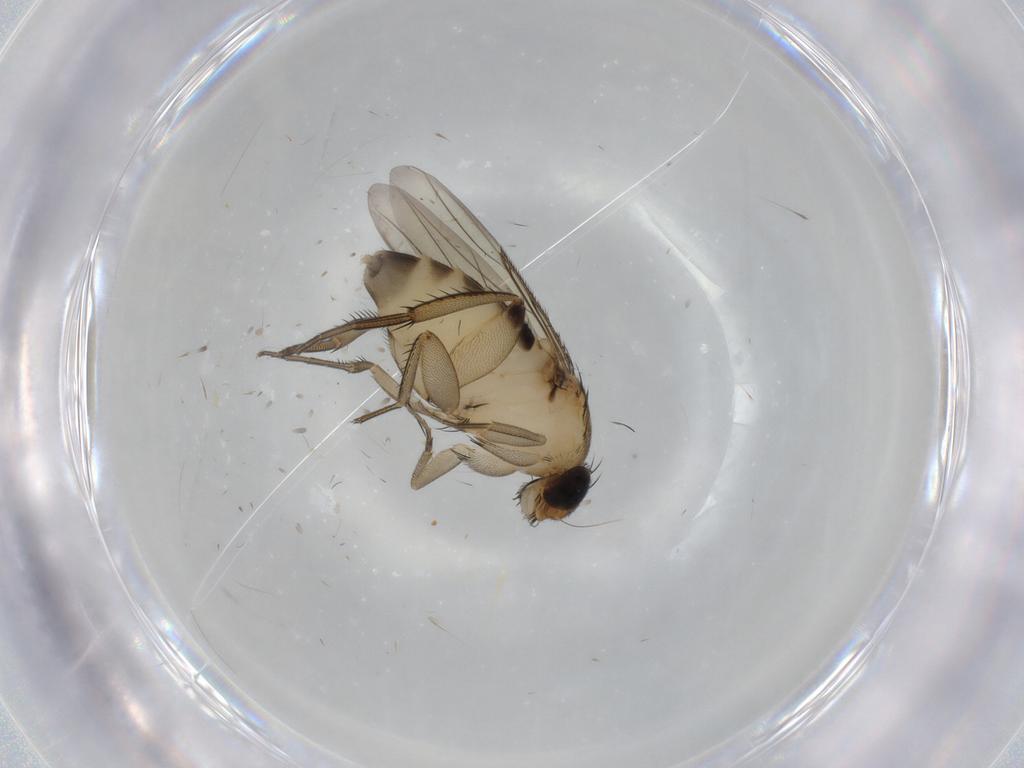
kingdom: Animalia
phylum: Arthropoda
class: Insecta
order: Diptera
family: Phoridae
